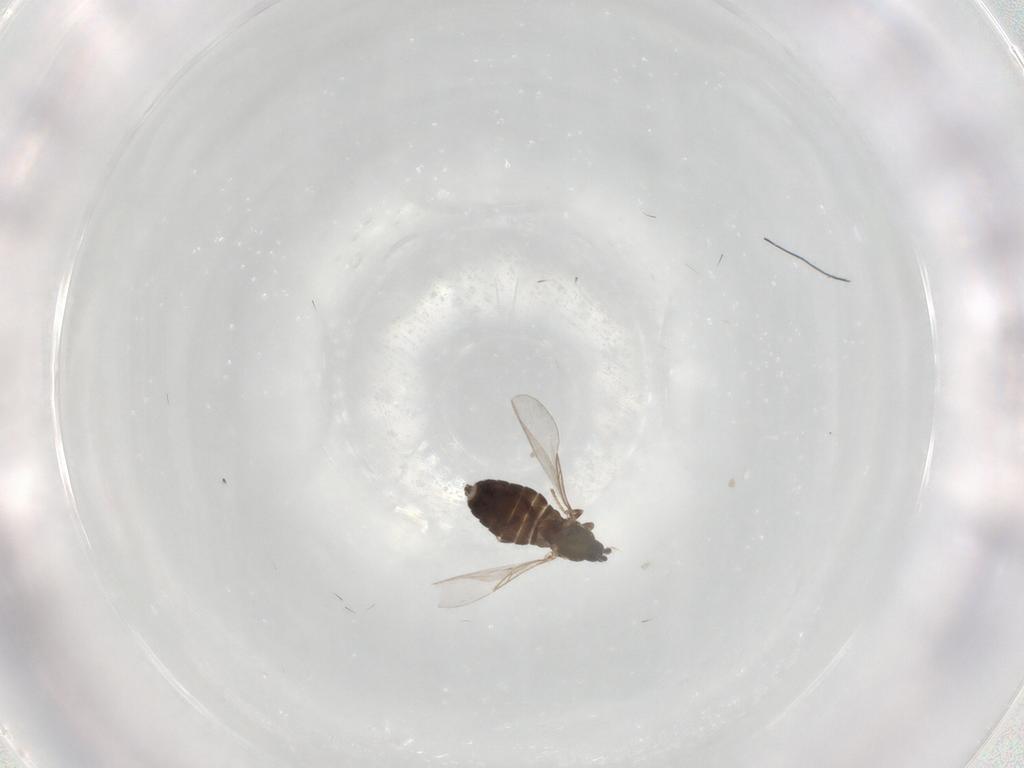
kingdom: Animalia
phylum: Arthropoda
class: Insecta
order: Diptera
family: Scatopsidae
